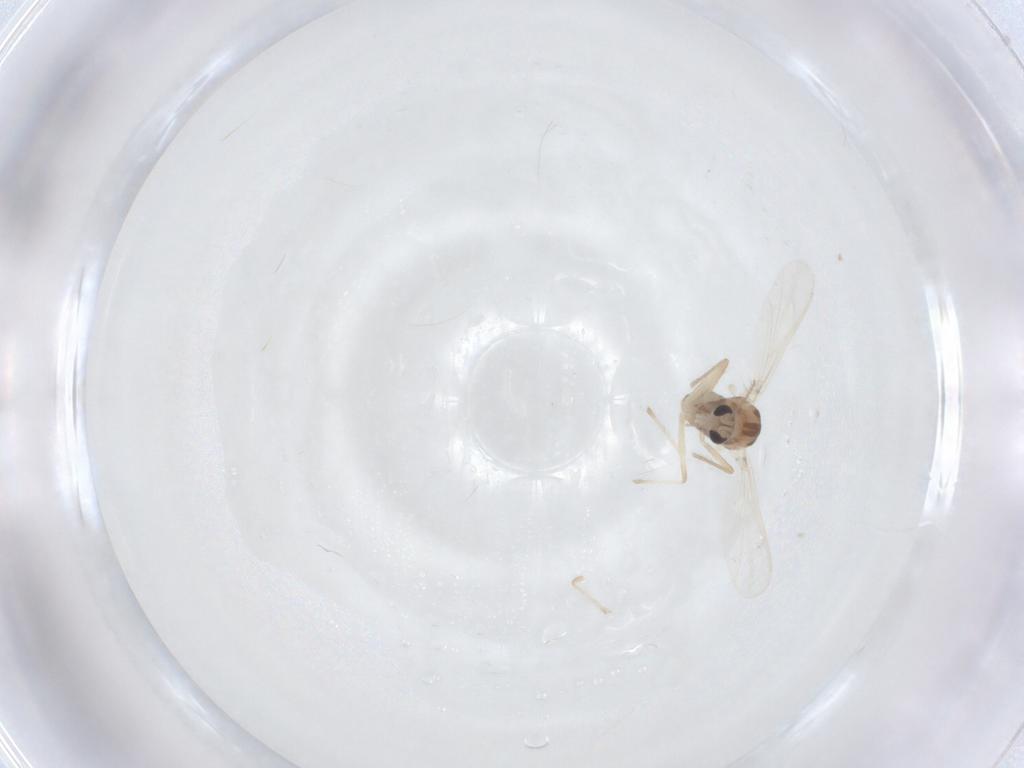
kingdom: Animalia
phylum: Arthropoda
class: Insecta
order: Diptera
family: Chironomidae
